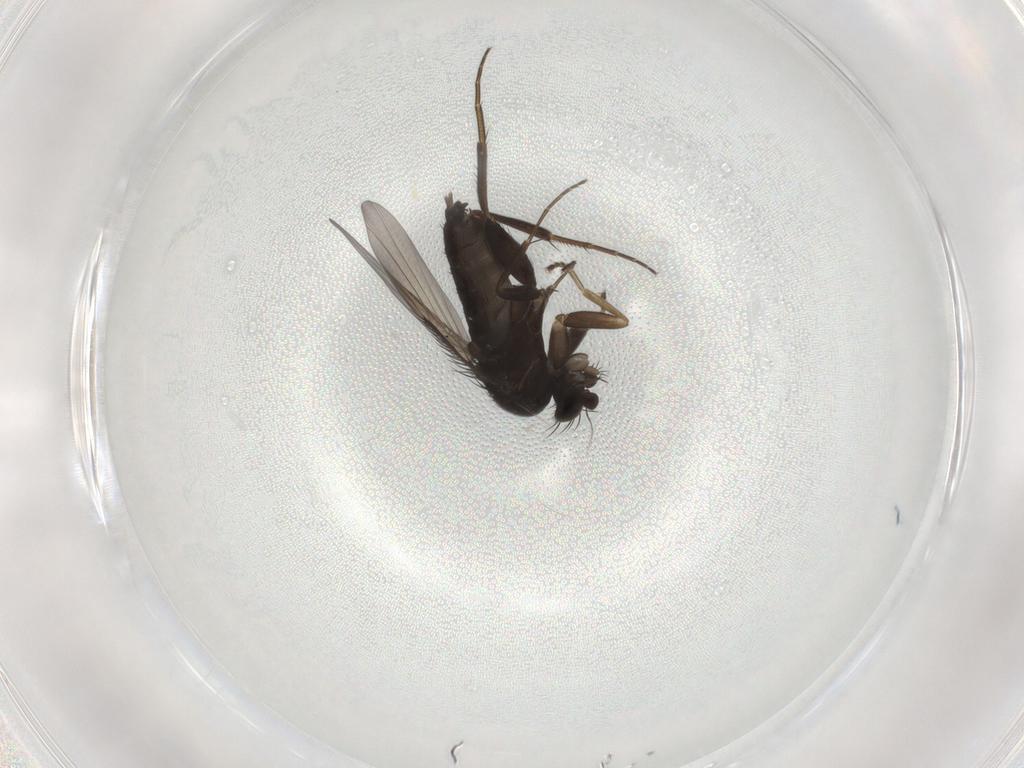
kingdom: Animalia
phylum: Arthropoda
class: Insecta
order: Diptera
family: Phoridae
